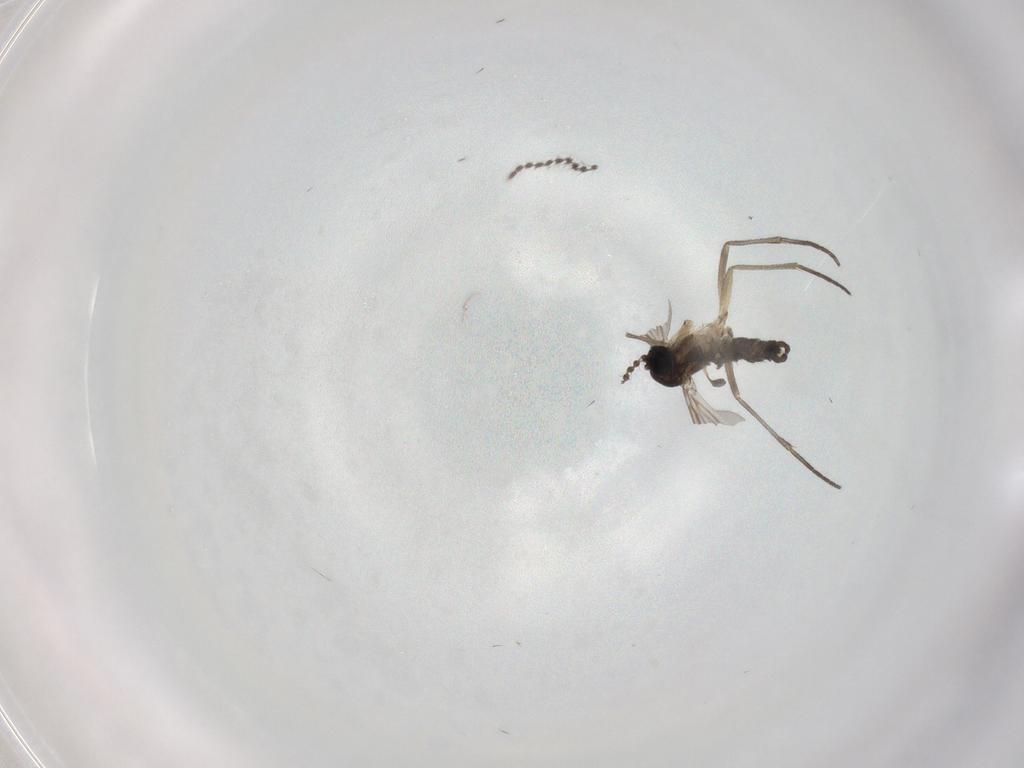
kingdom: Animalia
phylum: Arthropoda
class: Insecta
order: Diptera
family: Sciaridae
